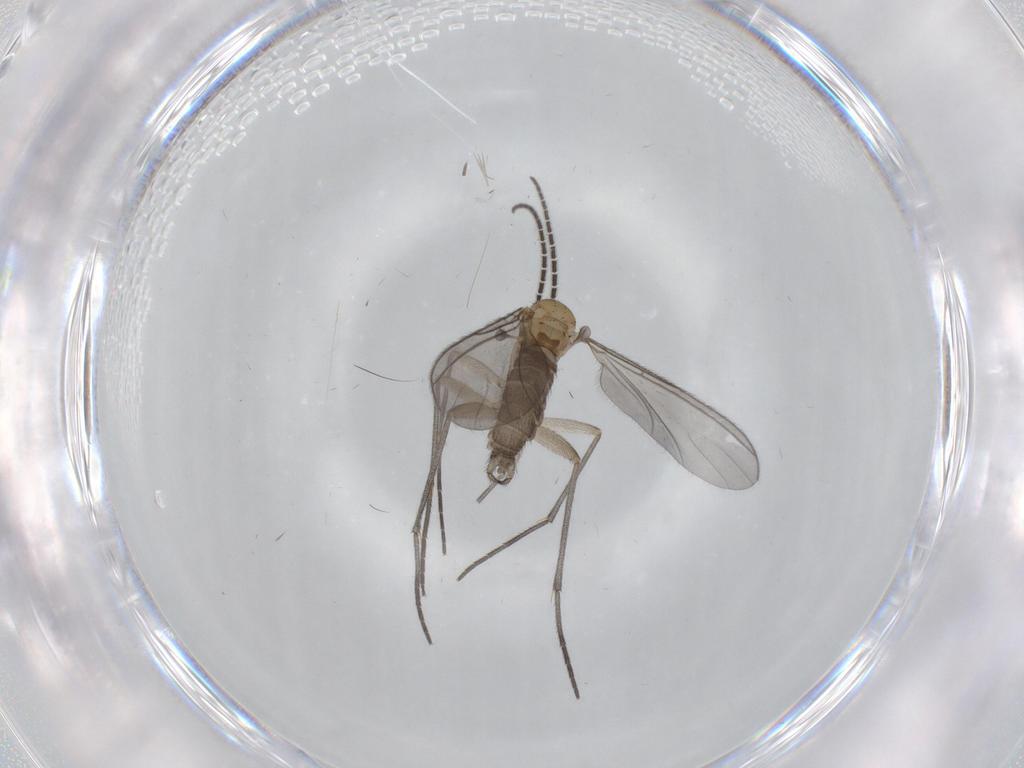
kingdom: Animalia
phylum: Arthropoda
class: Insecta
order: Diptera
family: Sciaridae
